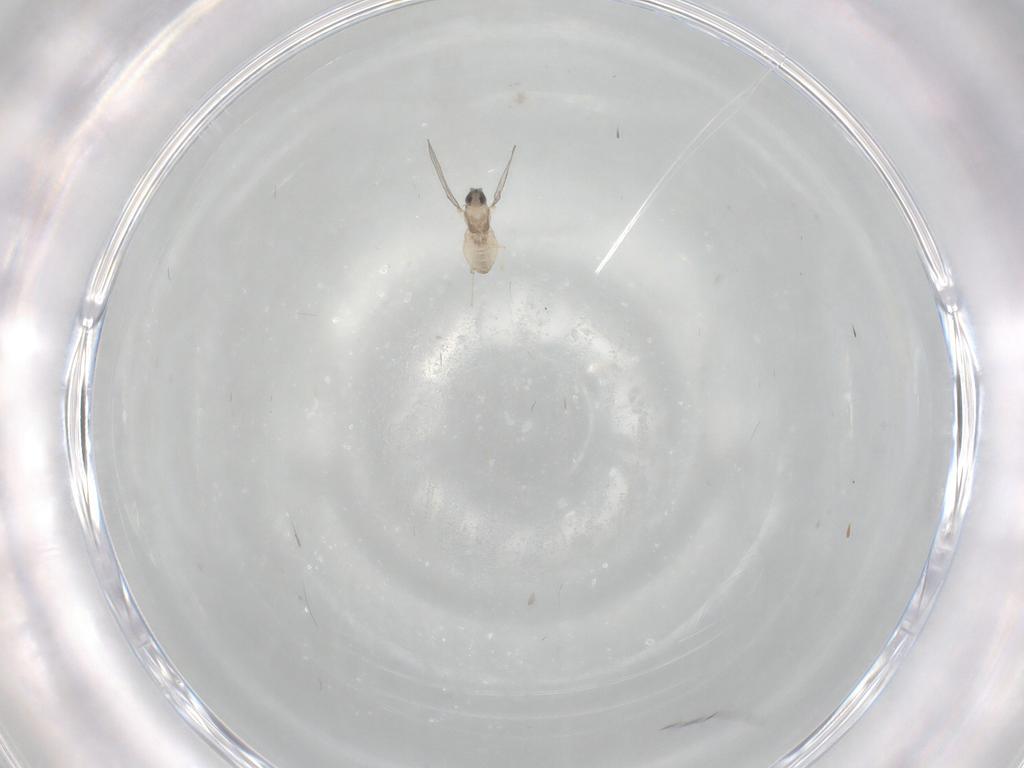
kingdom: Animalia
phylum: Arthropoda
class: Insecta
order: Diptera
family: Cecidomyiidae
